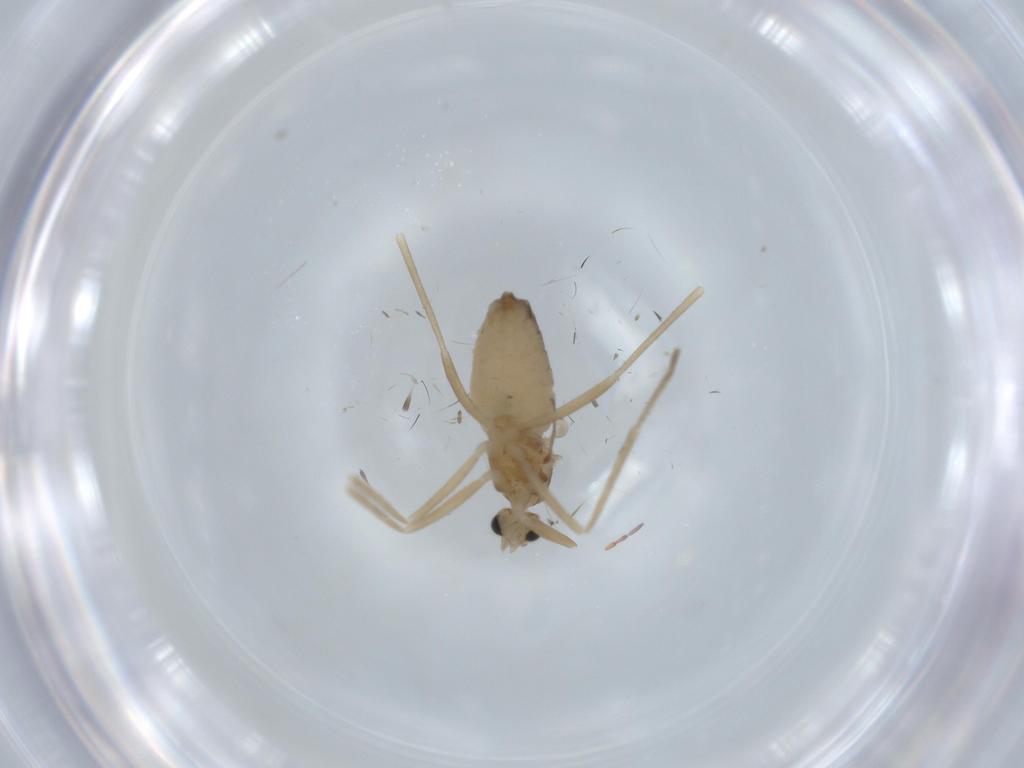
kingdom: Animalia
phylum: Arthropoda
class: Insecta
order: Diptera
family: Cecidomyiidae
